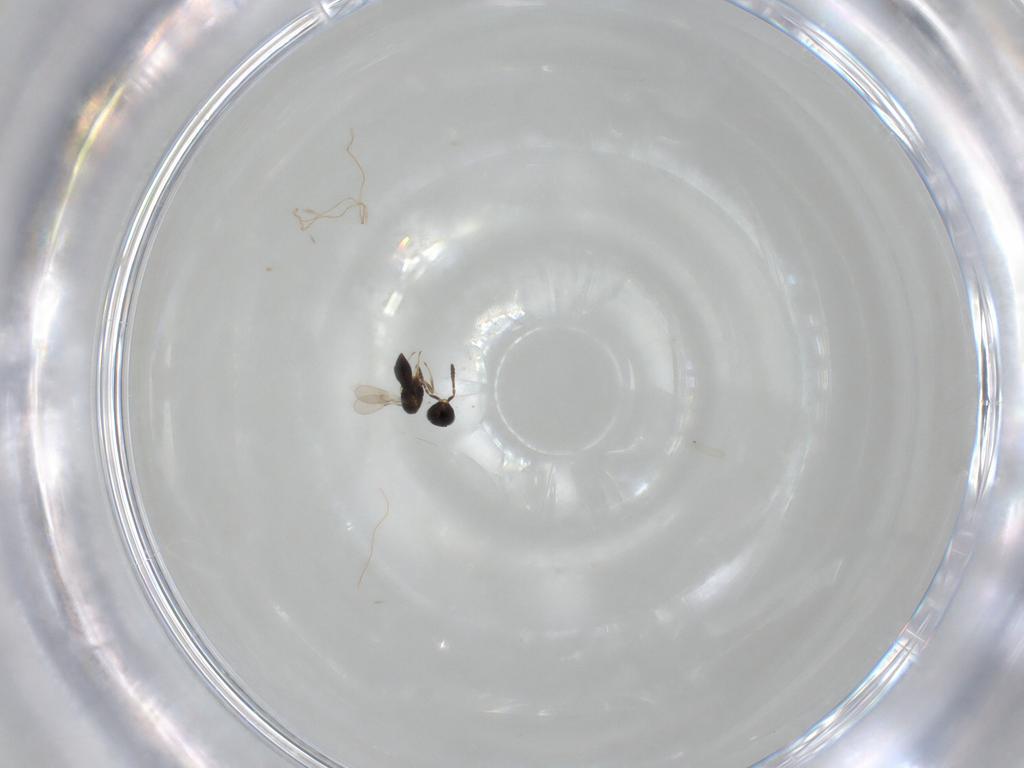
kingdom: Animalia
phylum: Arthropoda
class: Insecta
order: Hymenoptera
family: Scelionidae
